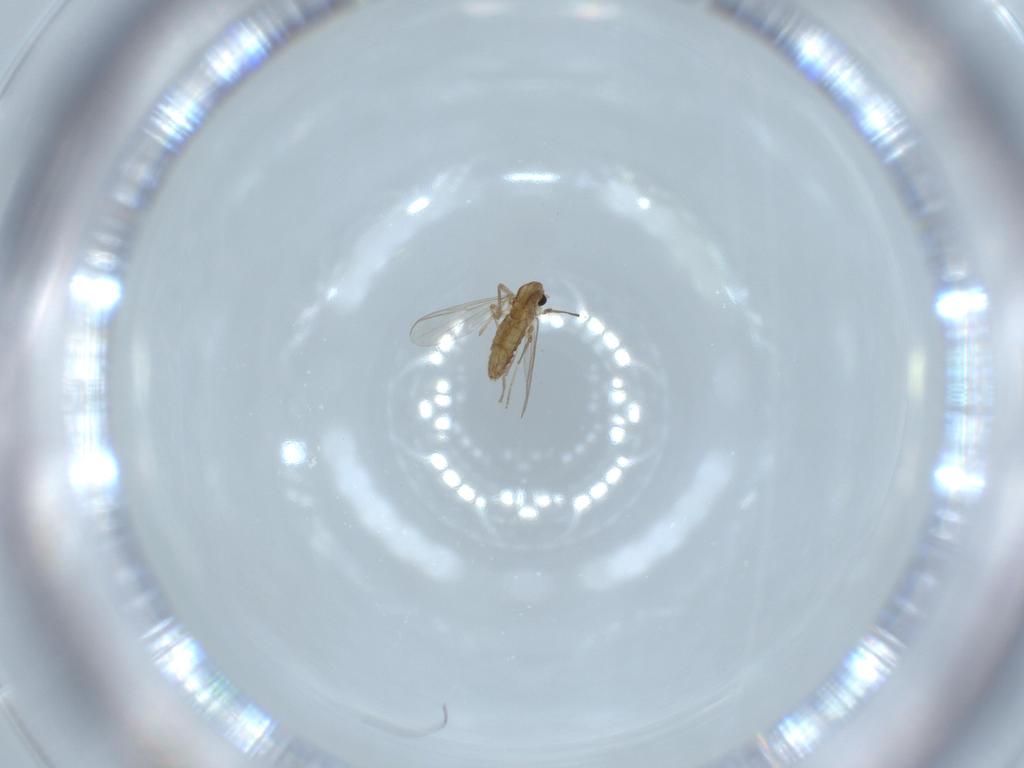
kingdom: Animalia
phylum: Arthropoda
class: Insecta
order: Diptera
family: Chironomidae
